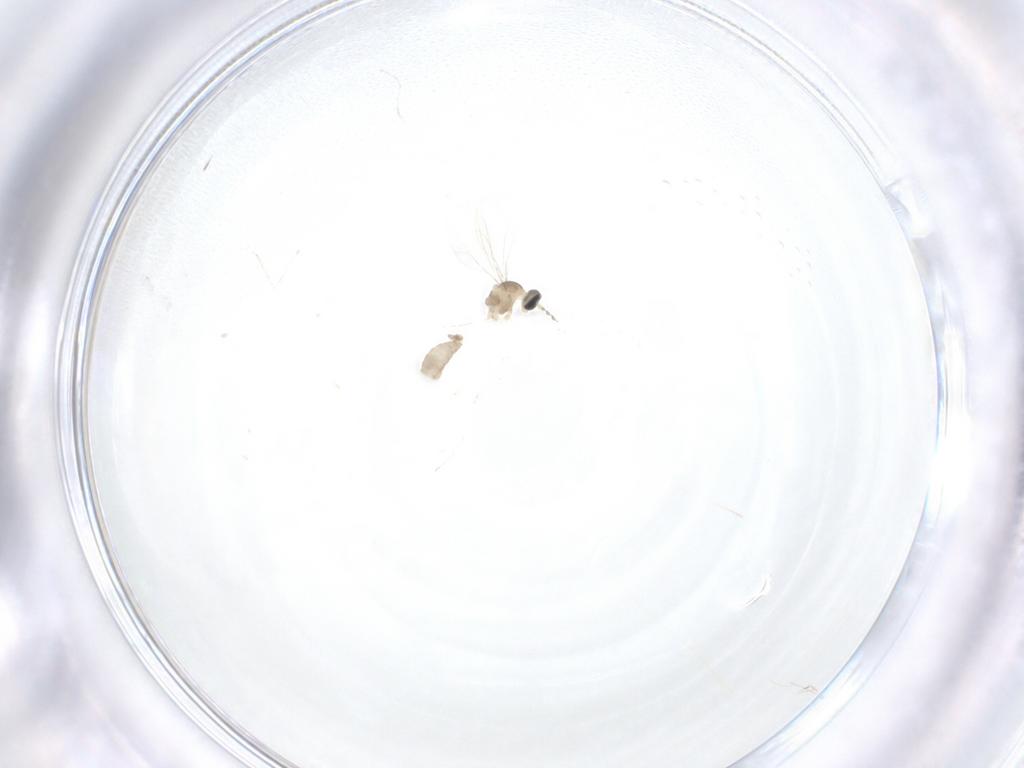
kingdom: Animalia
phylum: Arthropoda
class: Insecta
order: Diptera
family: Cecidomyiidae
